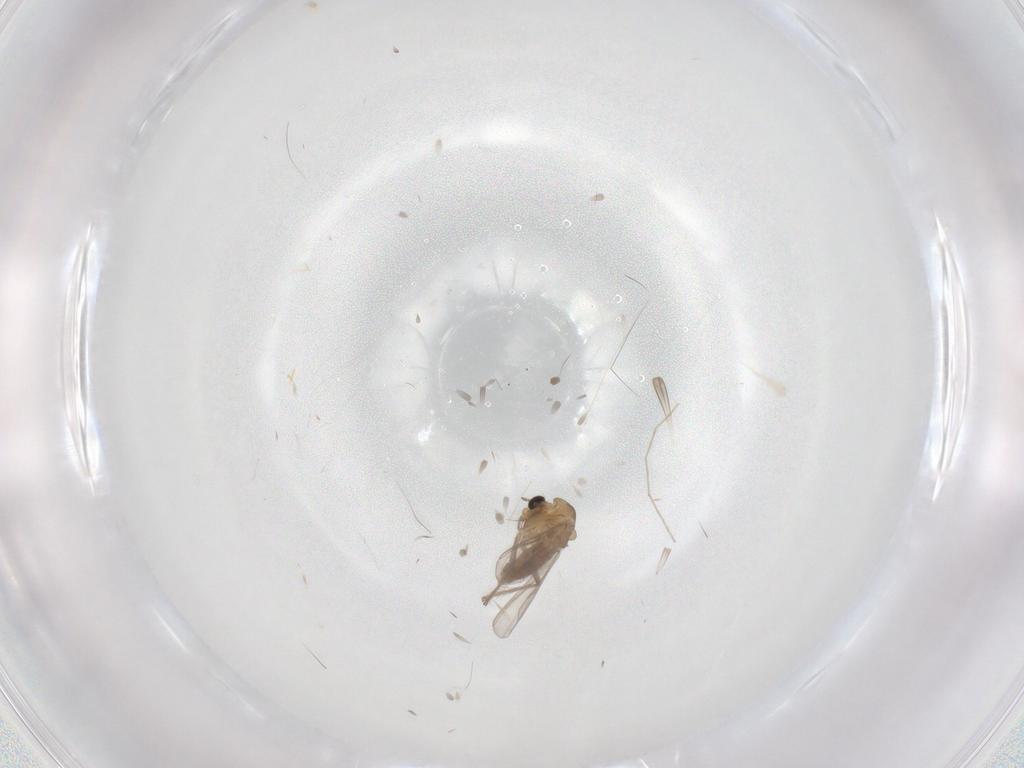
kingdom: Animalia
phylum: Arthropoda
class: Insecta
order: Diptera
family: Chironomidae
